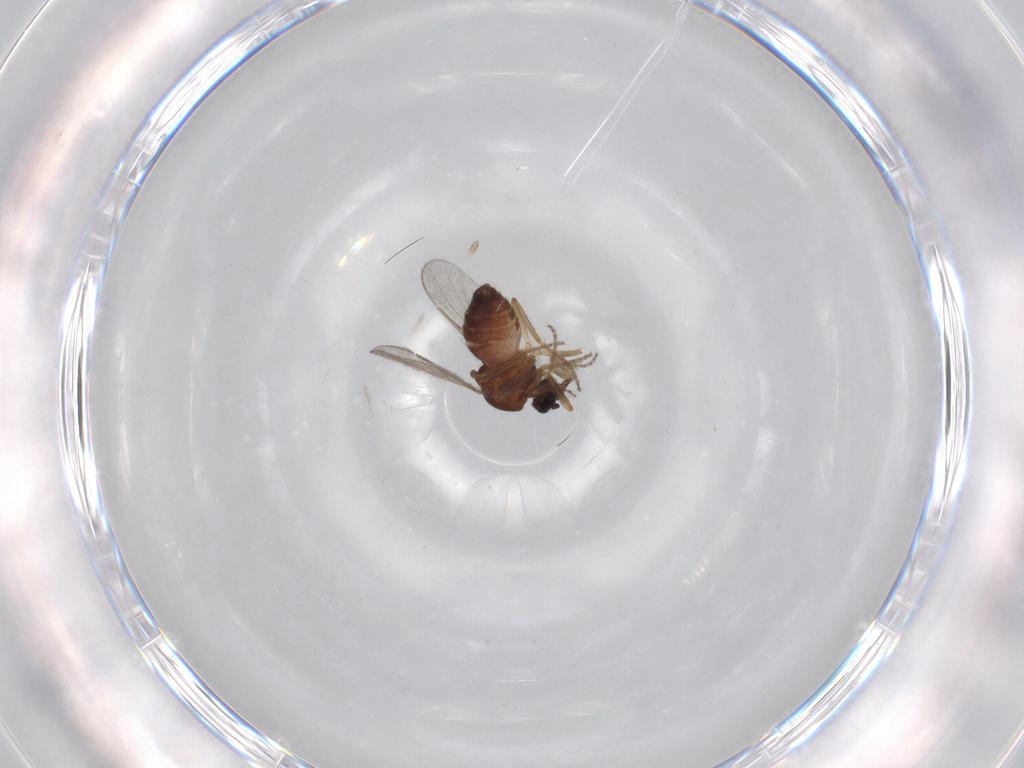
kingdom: Animalia
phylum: Arthropoda
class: Insecta
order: Diptera
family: Ceratopogonidae
